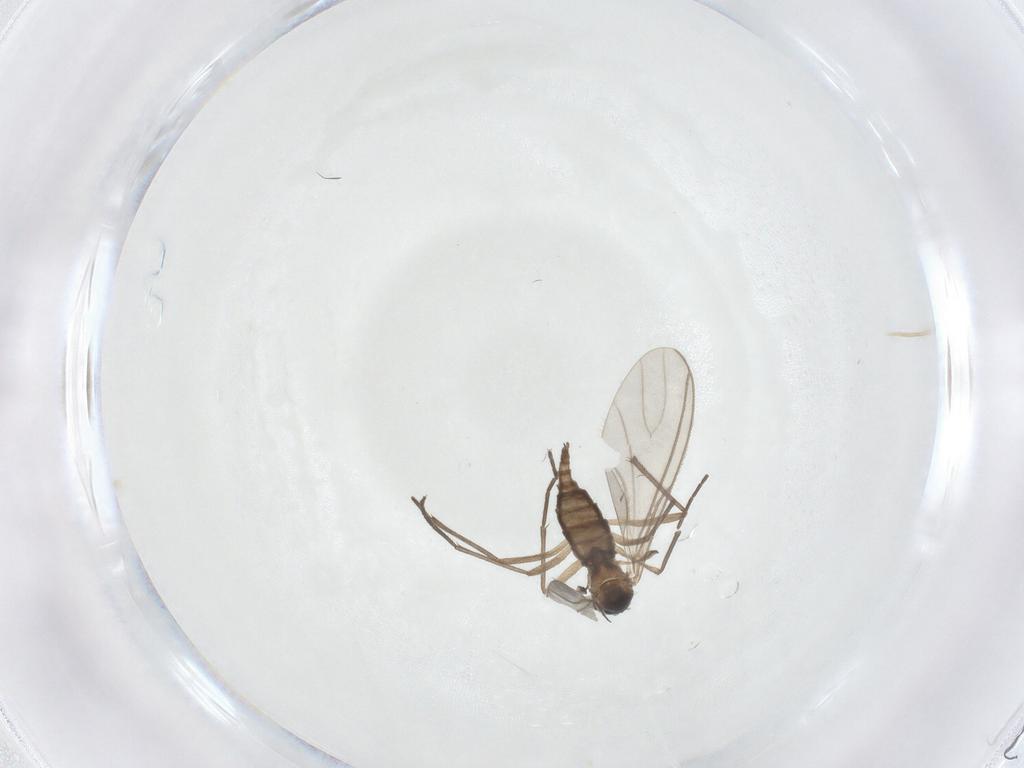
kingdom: Animalia
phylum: Arthropoda
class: Insecta
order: Diptera
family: Sciaridae
